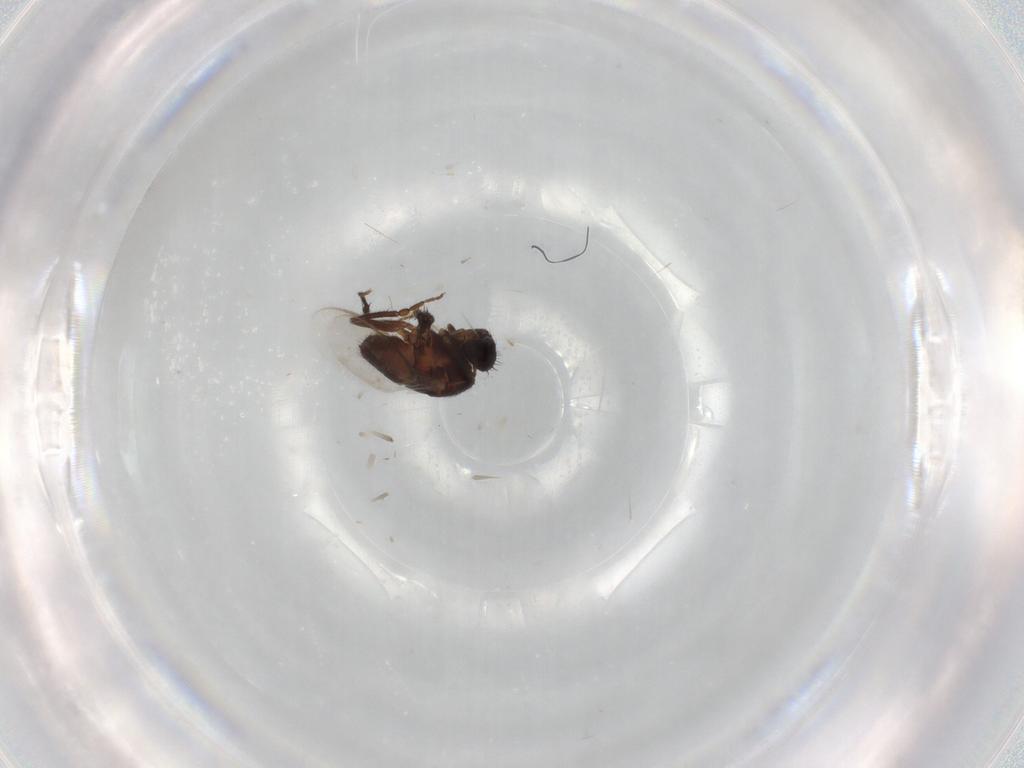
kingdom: Animalia
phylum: Arthropoda
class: Insecta
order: Diptera
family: Sphaeroceridae
